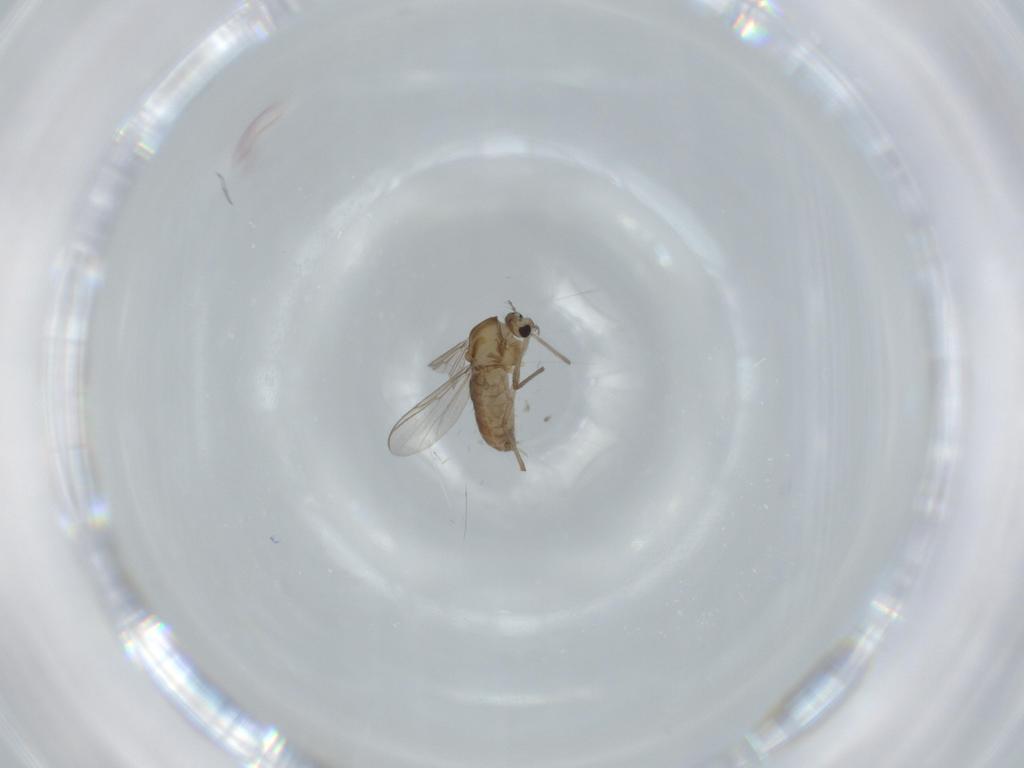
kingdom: Animalia
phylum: Arthropoda
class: Insecta
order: Diptera
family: Chironomidae
